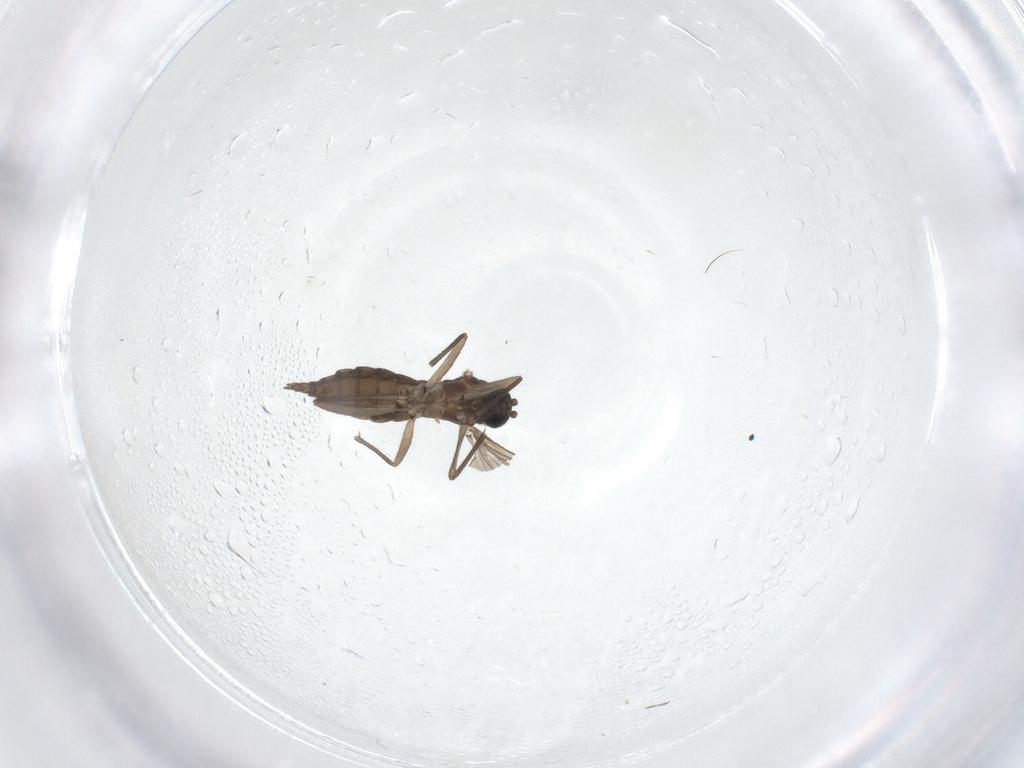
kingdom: Animalia
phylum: Arthropoda
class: Insecta
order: Diptera
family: Sciaridae
